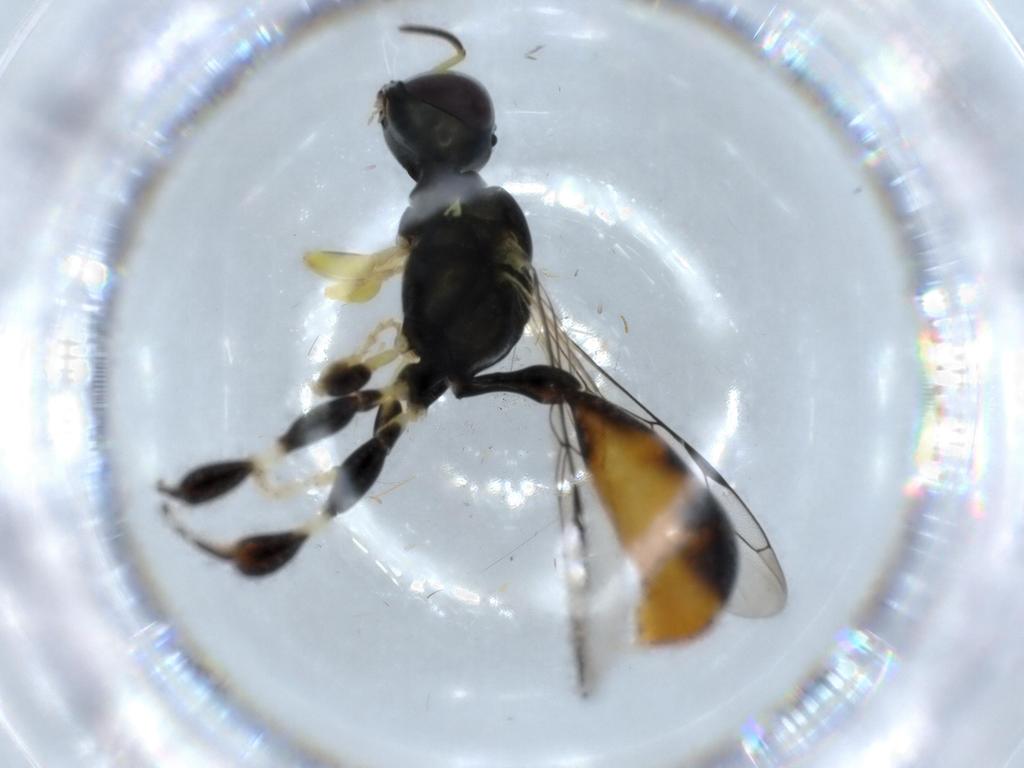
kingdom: Animalia
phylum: Arthropoda
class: Insecta
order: Hymenoptera
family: Crabronidae
